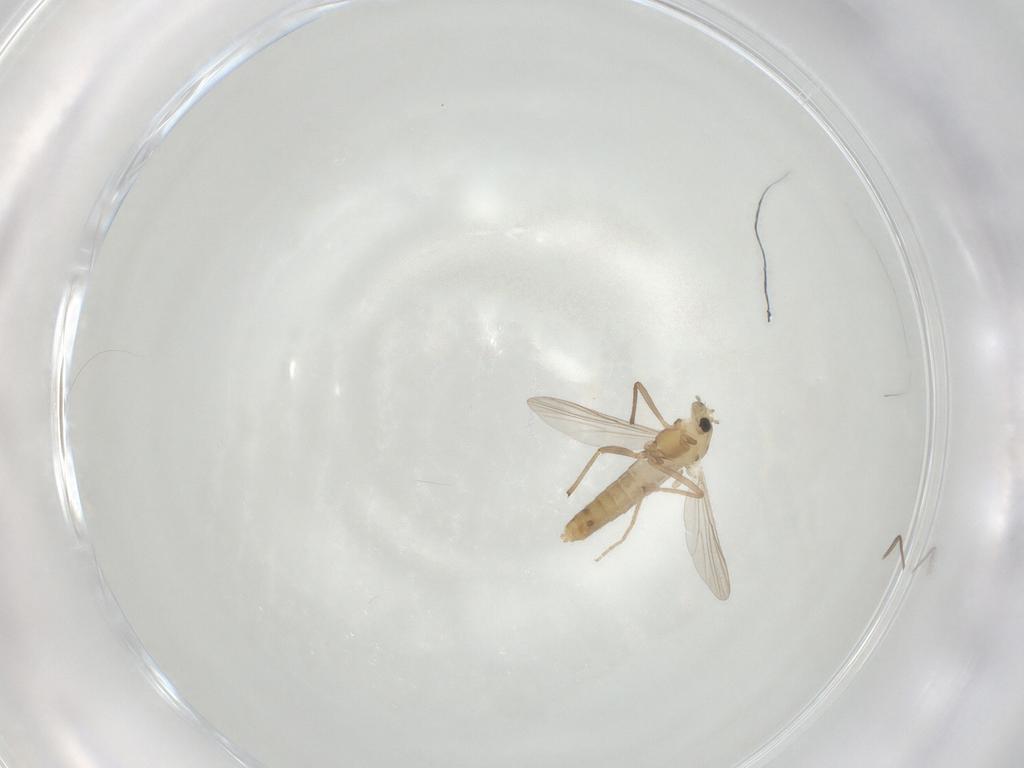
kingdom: Animalia
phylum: Arthropoda
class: Insecta
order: Diptera
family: Chironomidae
